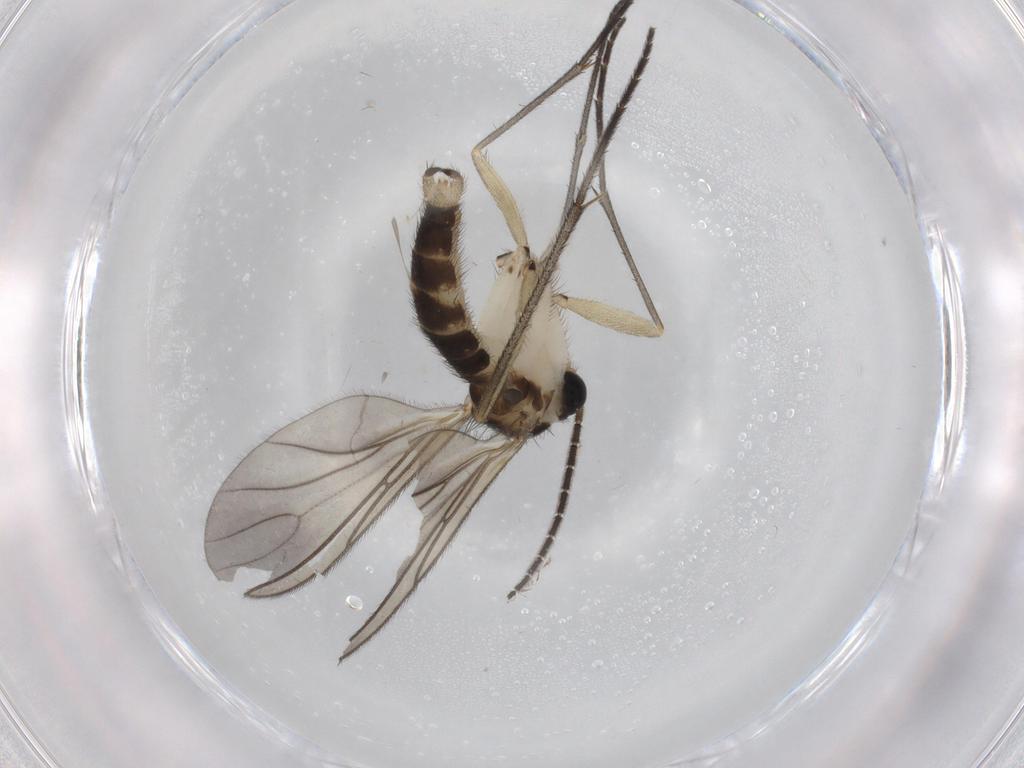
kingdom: Animalia
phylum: Arthropoda
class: Insecta
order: Diptera
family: Sciaridae
